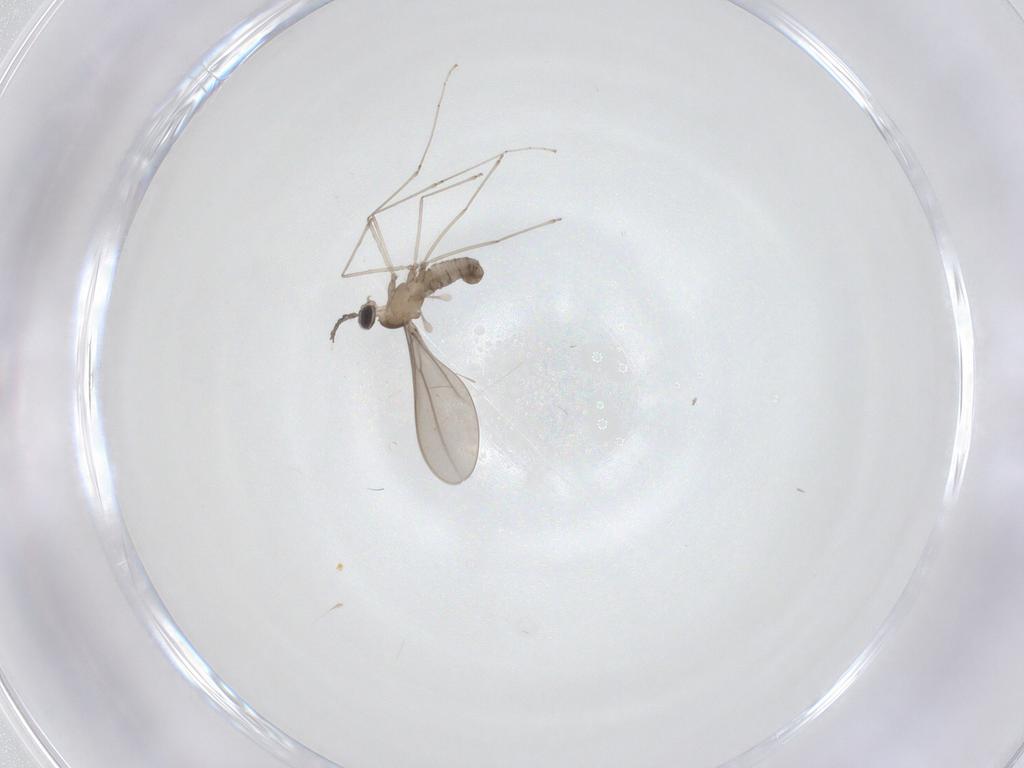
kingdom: Animalia
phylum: Arthropoda
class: Insecta
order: Diptera
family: Cecidomyiidae
